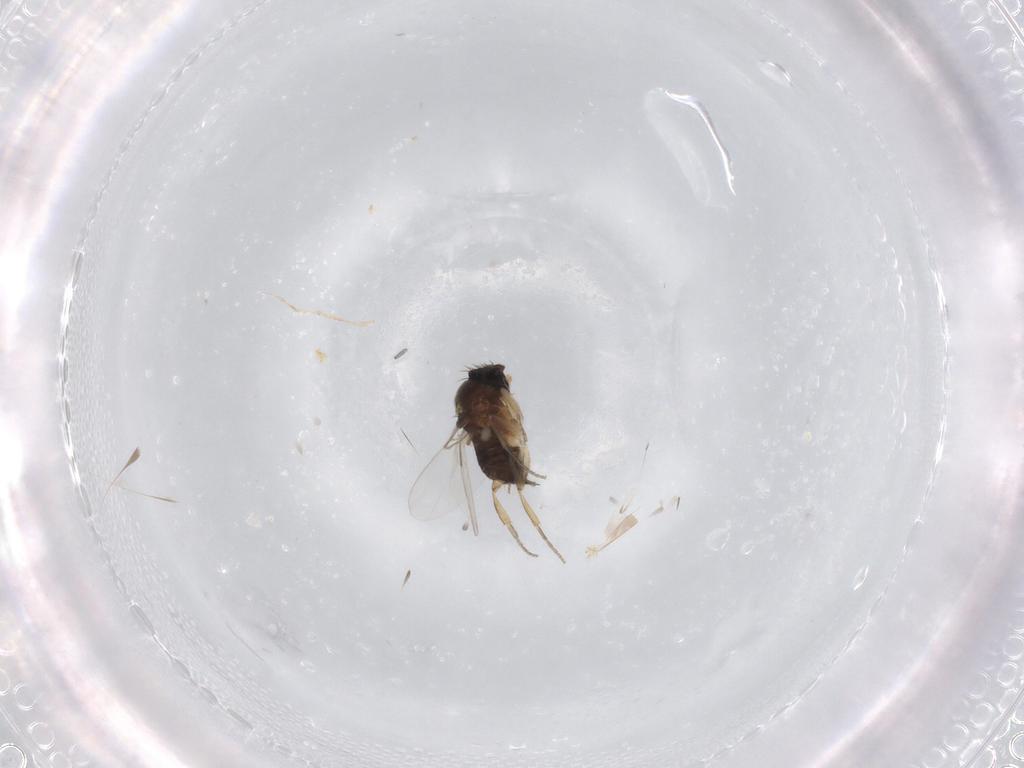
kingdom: Animalia
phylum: Arthropoda
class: Insecta
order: Diptera
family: Phoridae
